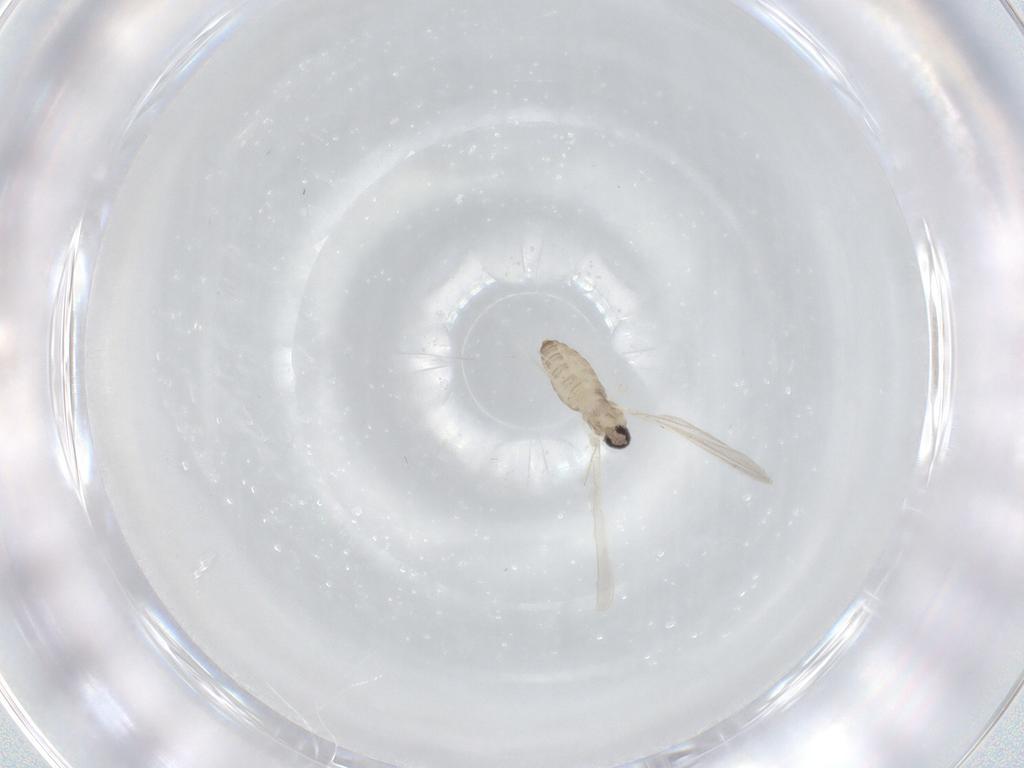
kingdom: Animalia
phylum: Arthropoda
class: Insecta
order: Diptera
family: Cecidomyiidae
